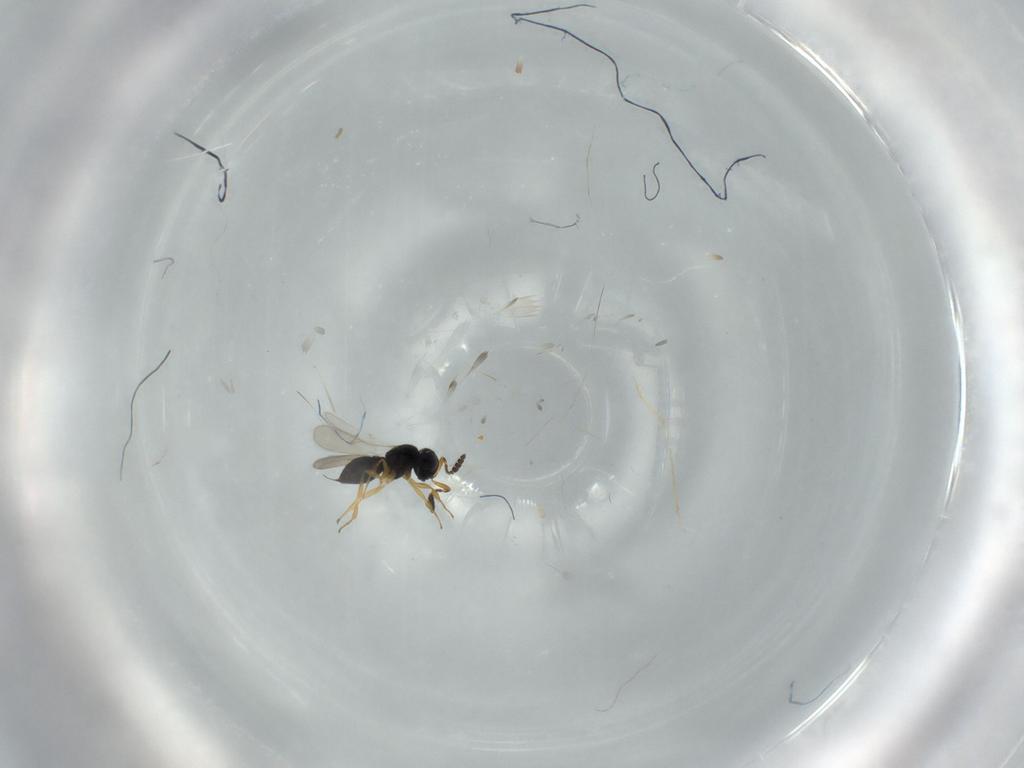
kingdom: Animalia
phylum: Arthropoda
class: Insecta
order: Hymenoptera
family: Scelionidae
